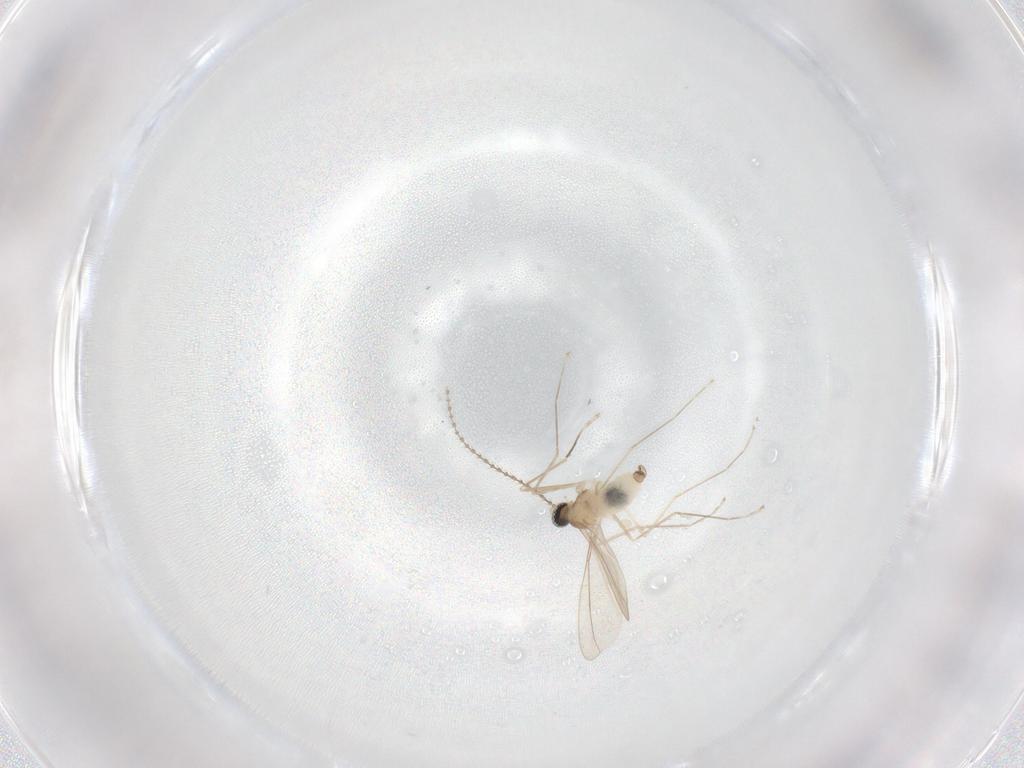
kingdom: Animalia
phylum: Arthropoda
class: Insecta
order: Diptera
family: Cecidomyiidae
